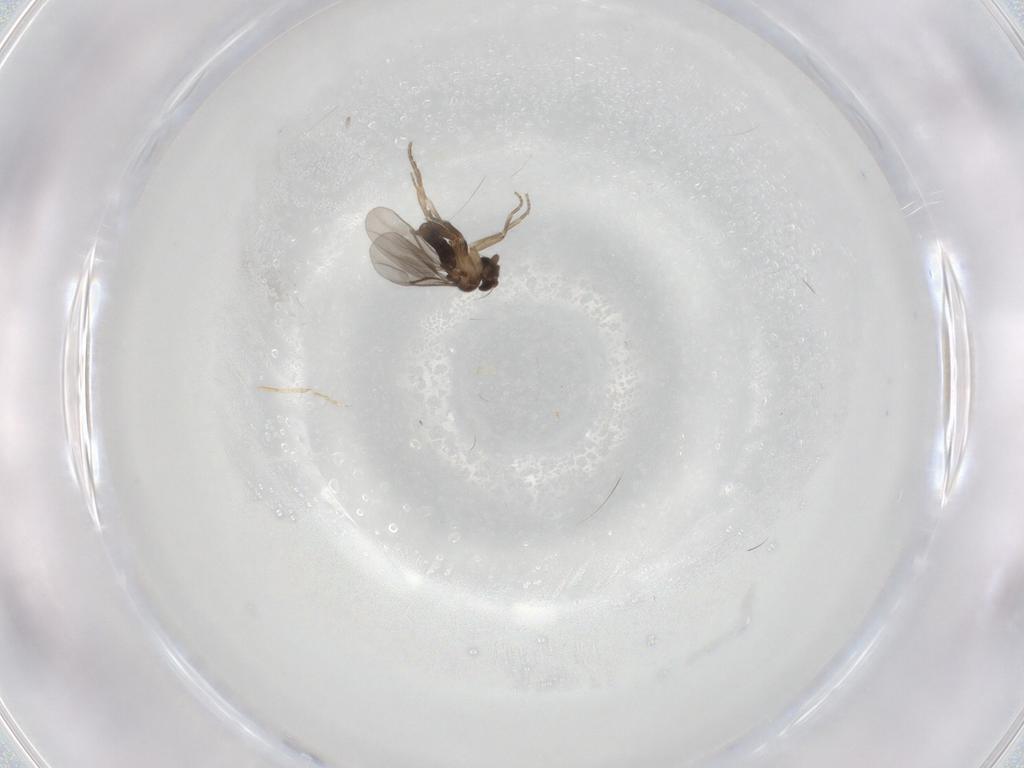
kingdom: Animalia
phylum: Arthropoda
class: Insecta
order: Diptera
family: Phoridae
